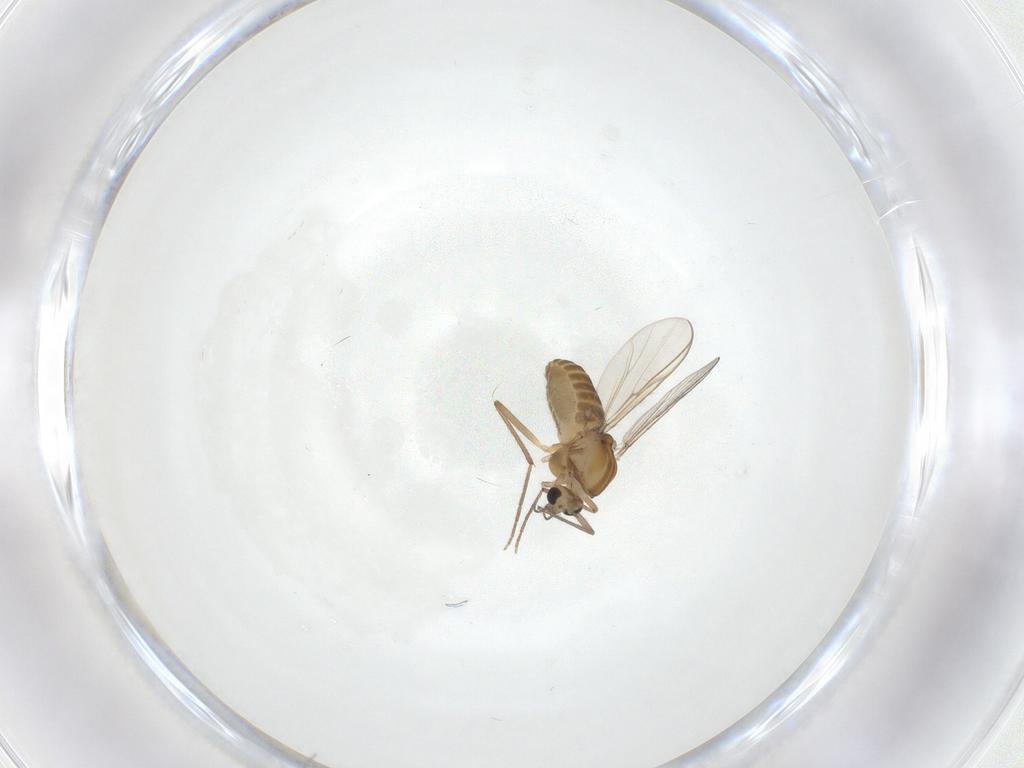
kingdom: Animalia
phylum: Arthropoda
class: Insecta
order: Diptera
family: Chironomidae
